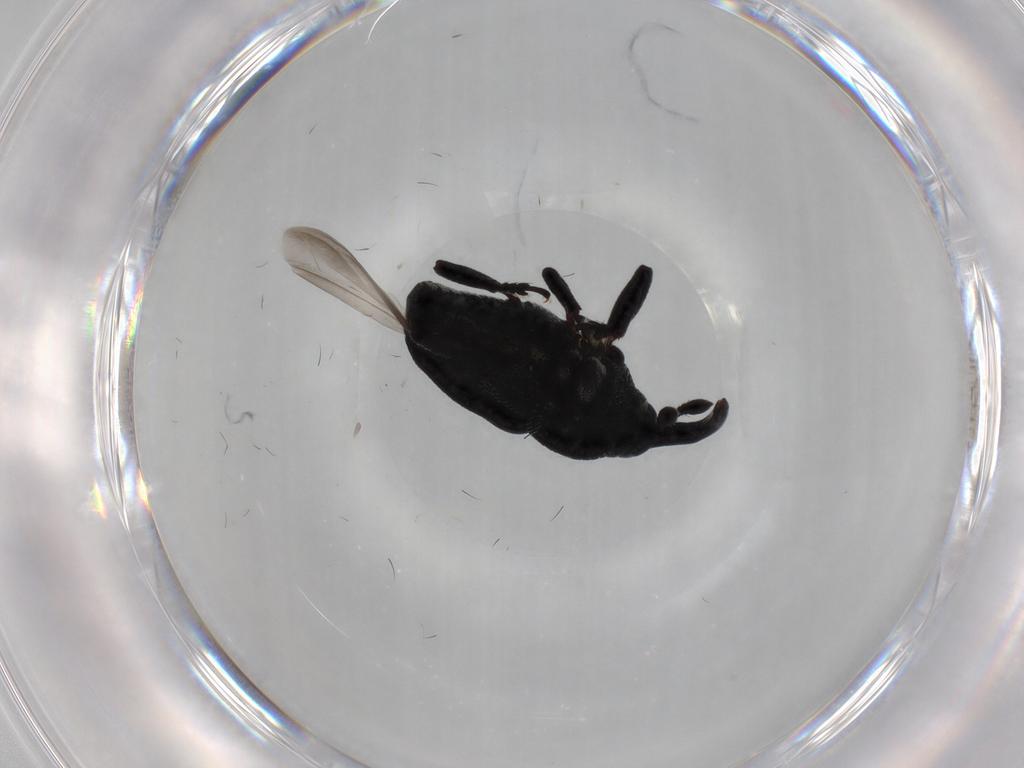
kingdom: Animalia
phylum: Arthropoda
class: Insecta
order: Coleoptera
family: Curculionidae
